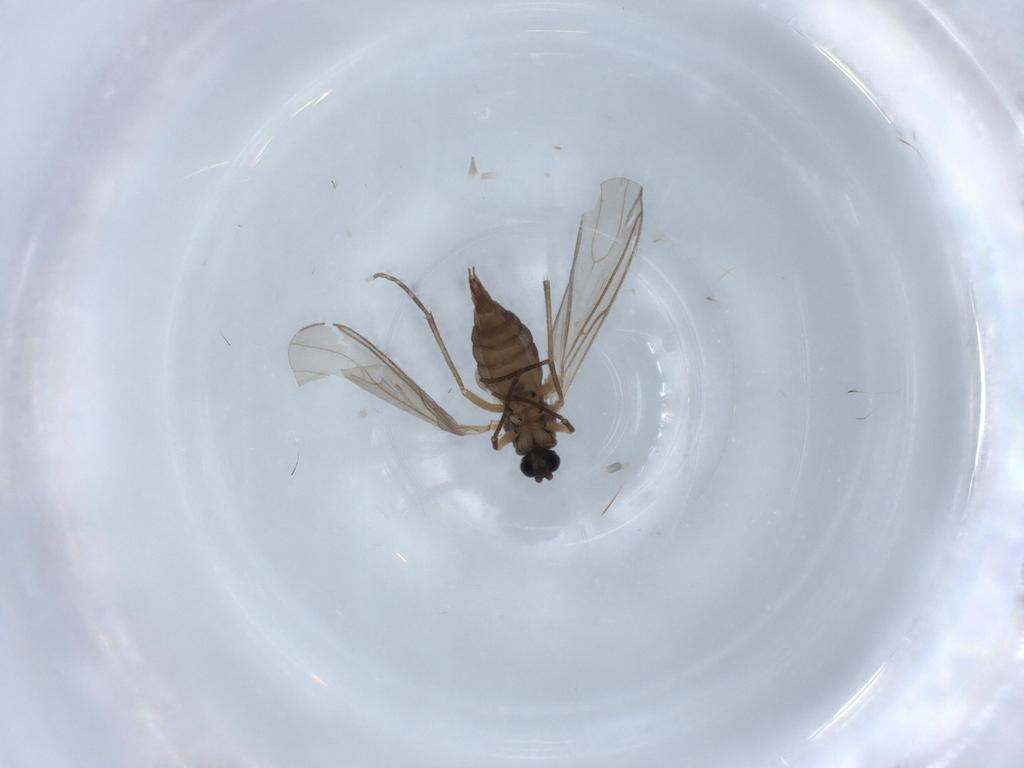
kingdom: Animalia
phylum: Arthropoda
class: Insecta
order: Diptera
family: Sciaridae
